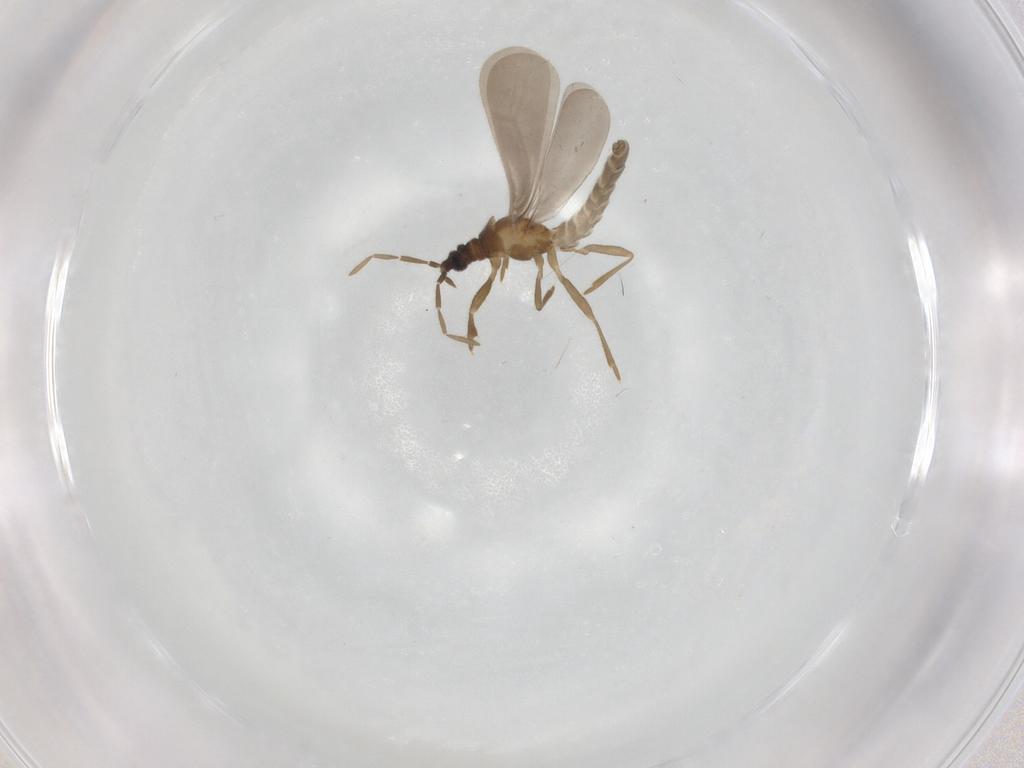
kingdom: Animalia
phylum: Arthropoda
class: Insecta
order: Hemiptera
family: Enicocephalidae
